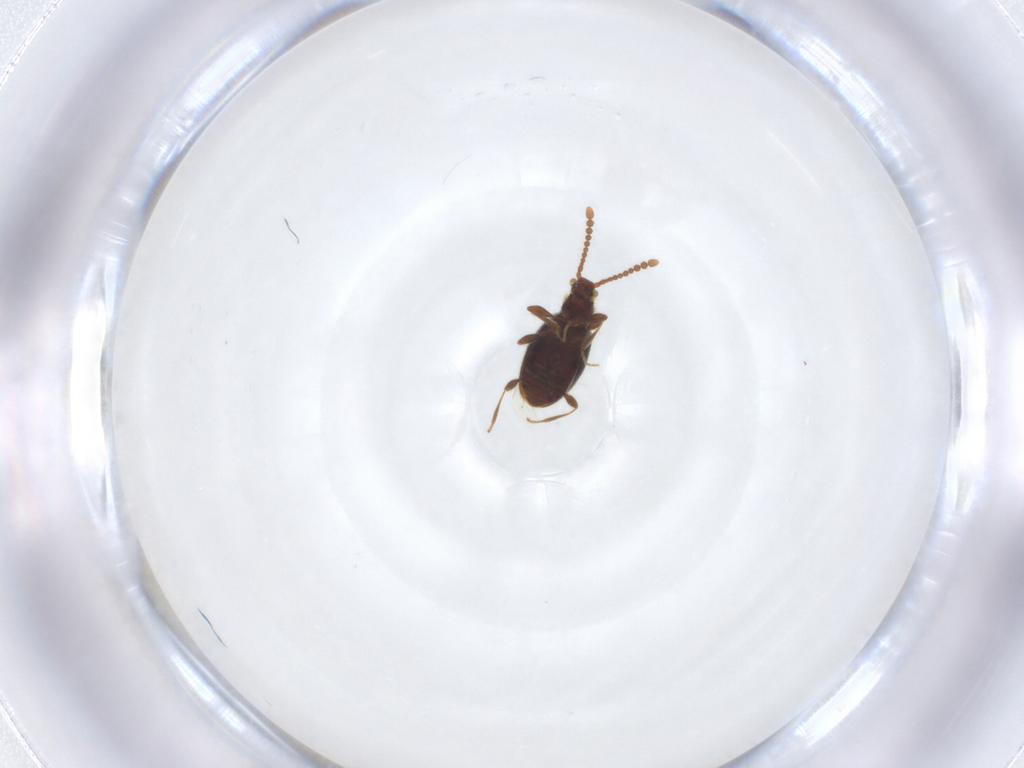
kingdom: Animalia
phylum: Arthropoda
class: Insecta
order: Coleoptera
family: Staphylinidae
